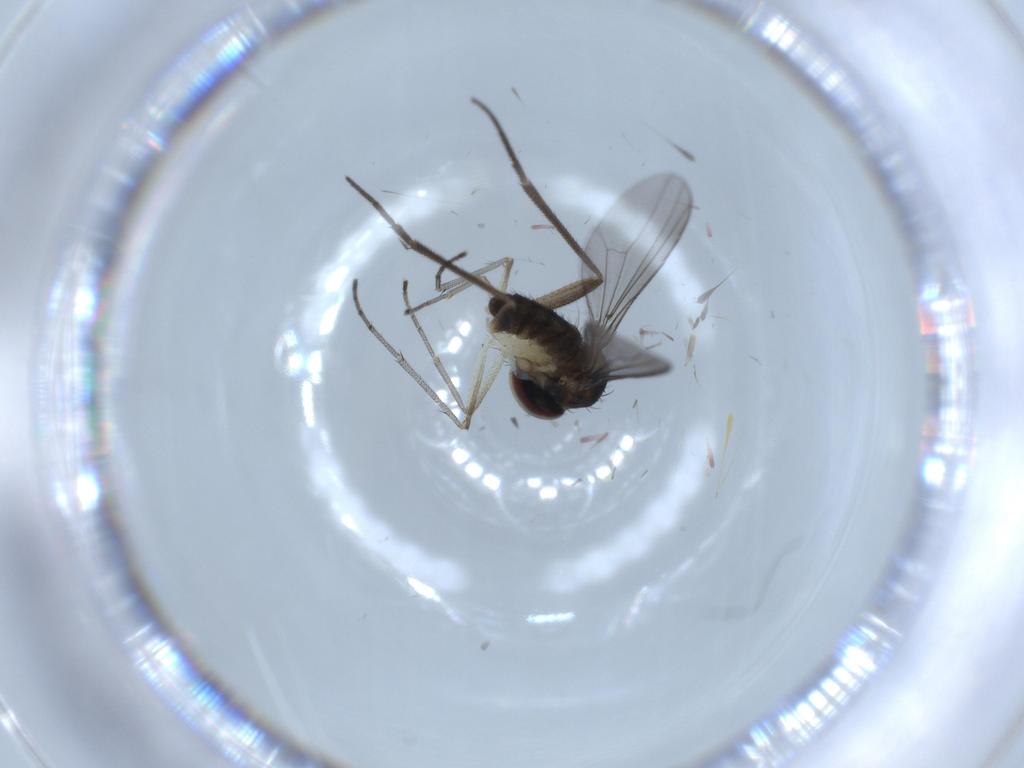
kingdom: Animalia
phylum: Arthropoda
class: Insecta
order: Diptera
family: Dolichopodidae
